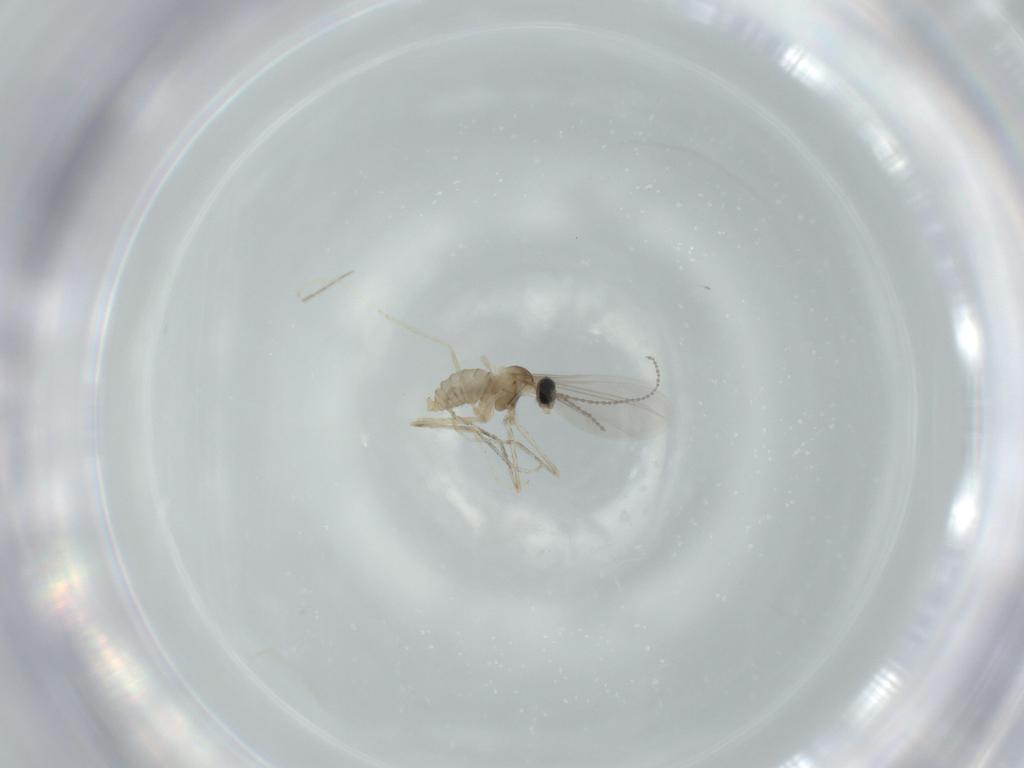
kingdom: Animalia
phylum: Arthropoda
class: Insecta
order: Diptera
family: Cecidomyiidae
